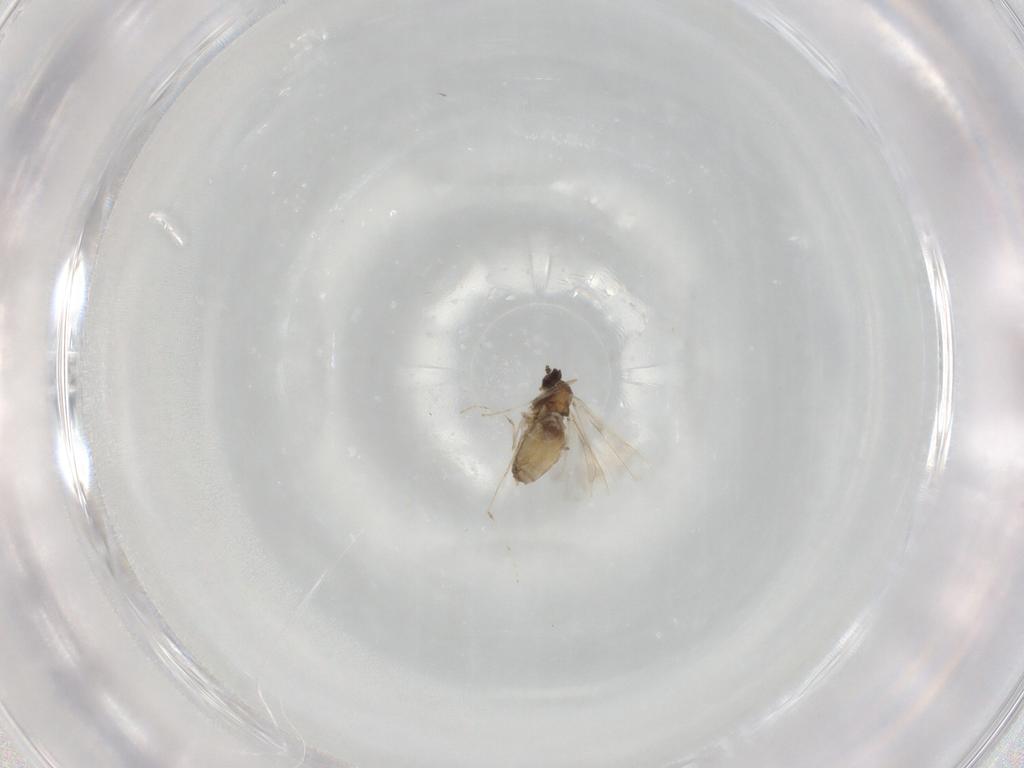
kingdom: Animalia
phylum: Arthropoda
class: Insecta
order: Diptera
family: Cecidomyiidae
